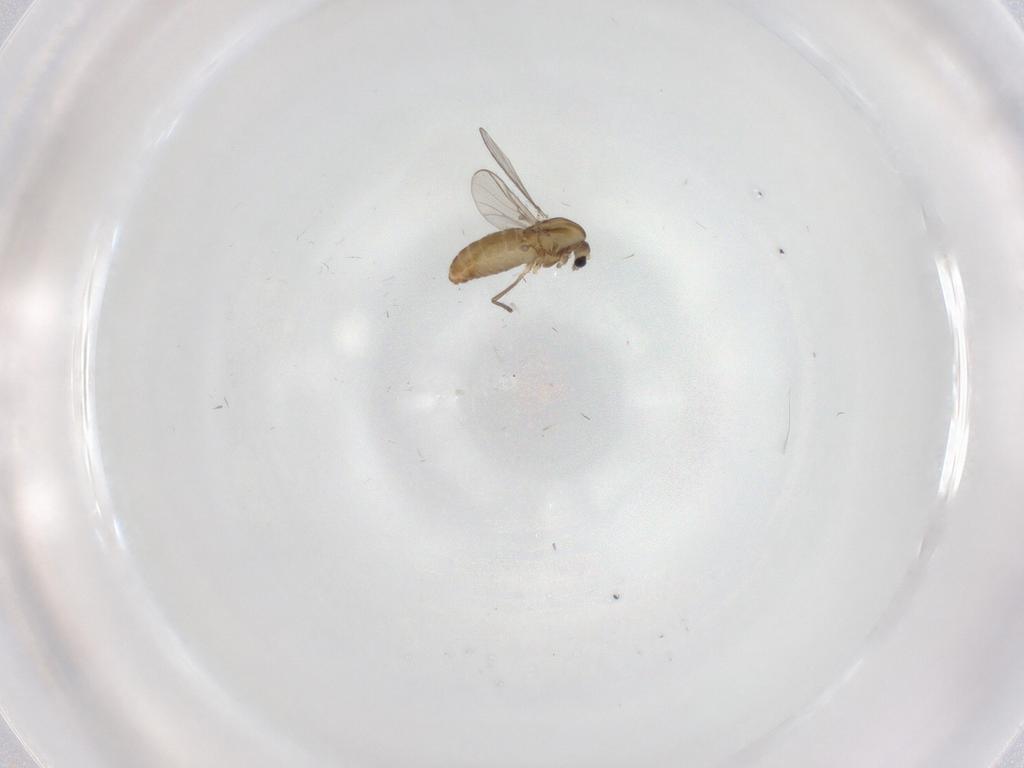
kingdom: Animalia
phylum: Arthropoda
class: Insecta
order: Diptera
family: Chironomidae
